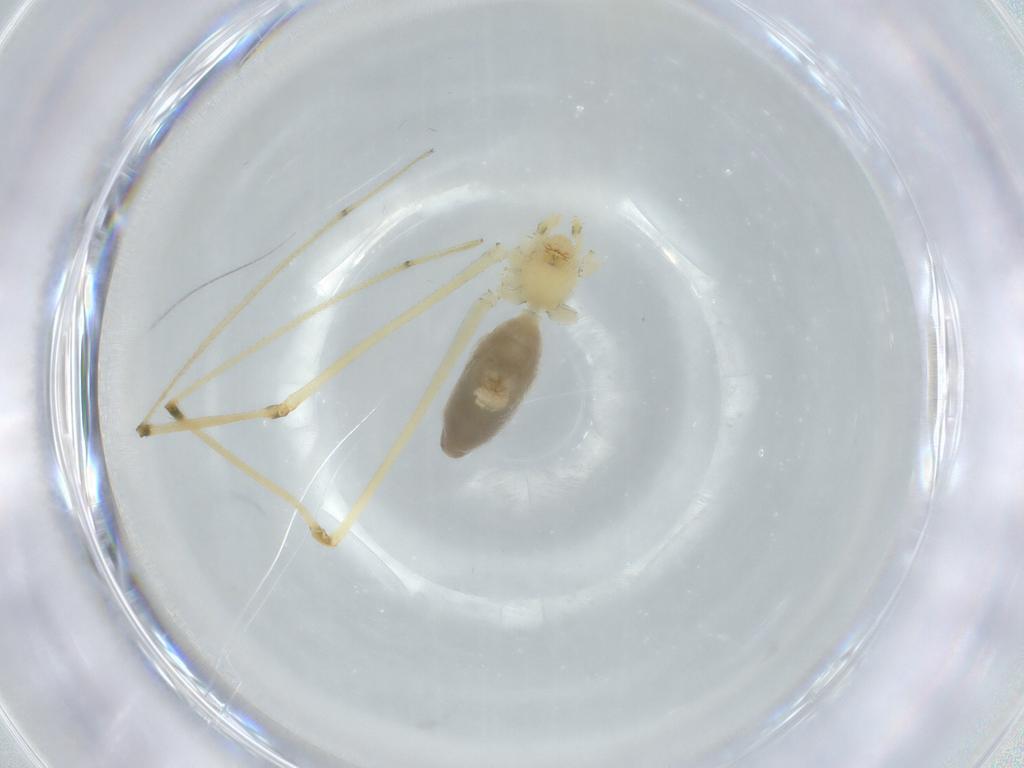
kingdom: Animalia
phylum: Arthropoda
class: Arachnida
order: Araneae
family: Pholcidae
